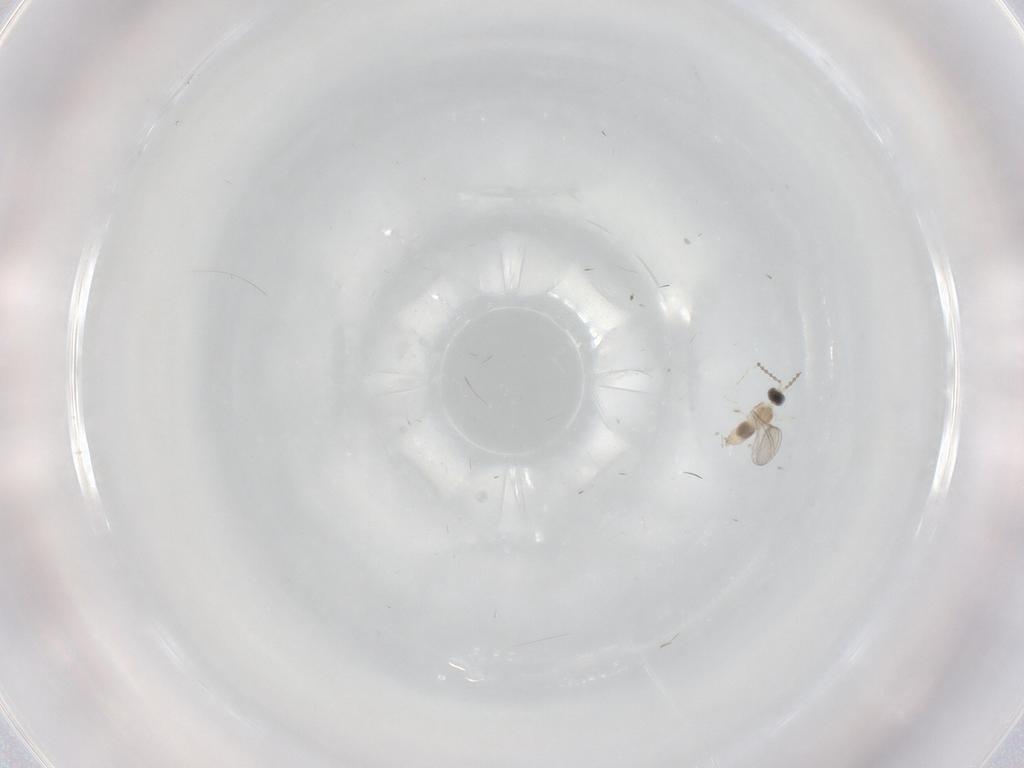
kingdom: Animalia
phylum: Arthropoda
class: Insecta
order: Diptera
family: Cecidomyiidae
